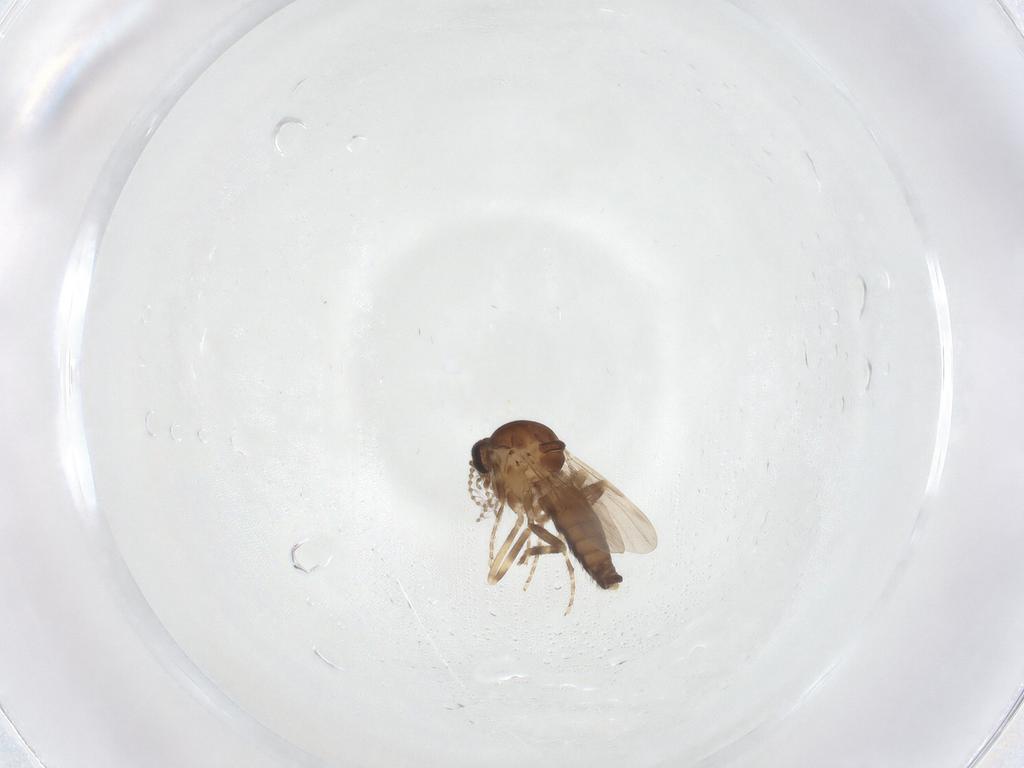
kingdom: Animalia
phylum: Arthropoda
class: Insecta
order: Diptera
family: Ceratopogonidae
